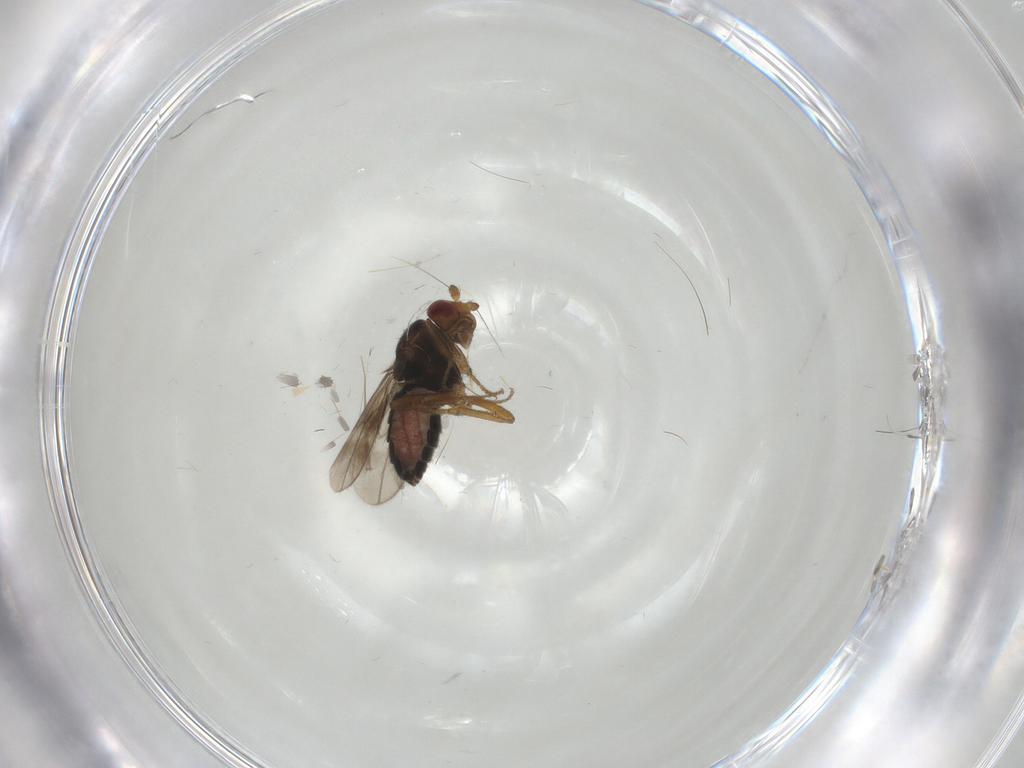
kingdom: Animalia
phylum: Arthropoda
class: Insecta
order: Diptera
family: Sphaeroceridae
